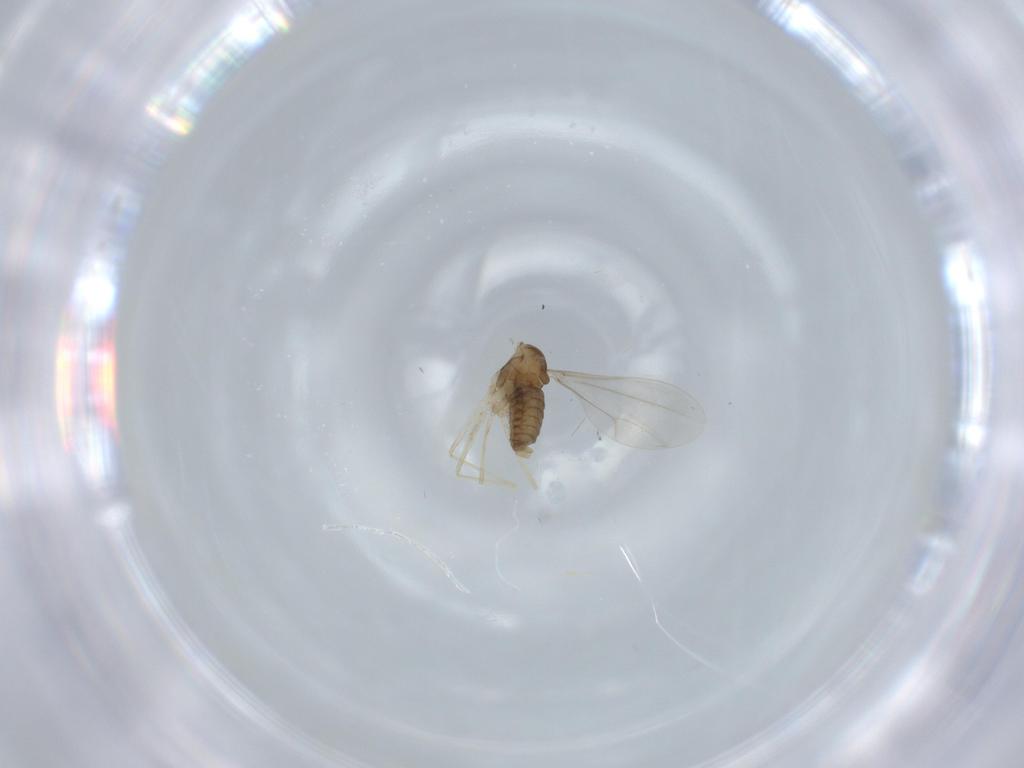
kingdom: Animalia
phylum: Arthropoda
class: Insecta
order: Diptera
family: Cecidomyiidae
